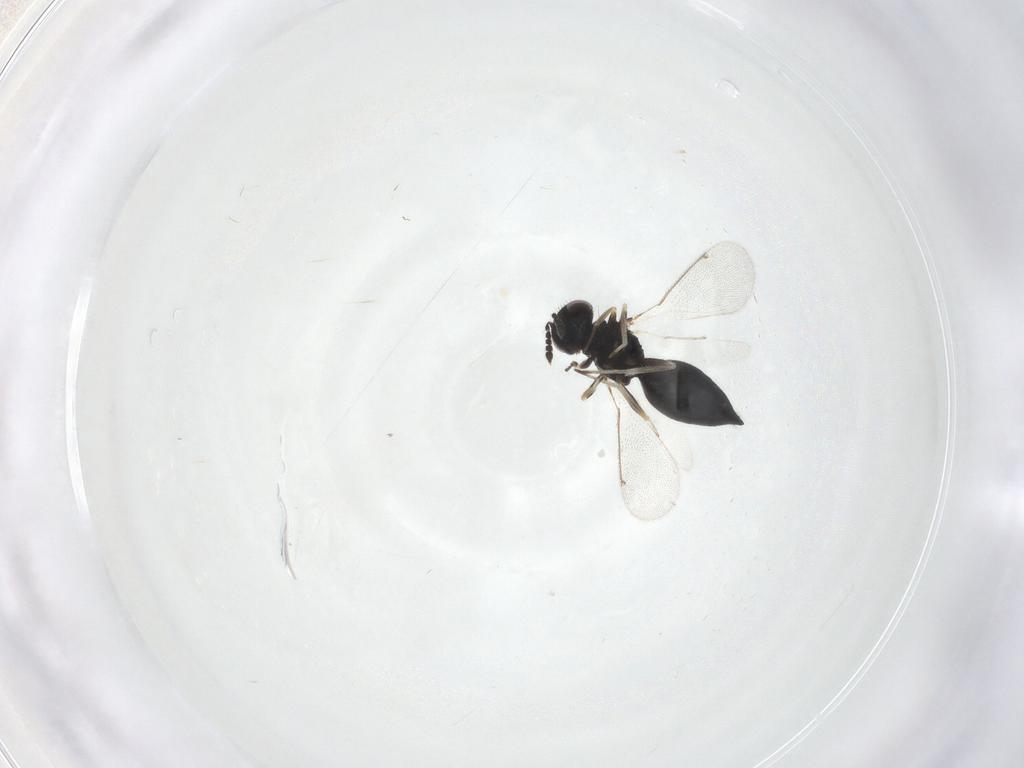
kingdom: Animalia
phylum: Arthropoda
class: Insecta
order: Hymenoptera
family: Eulophidae
